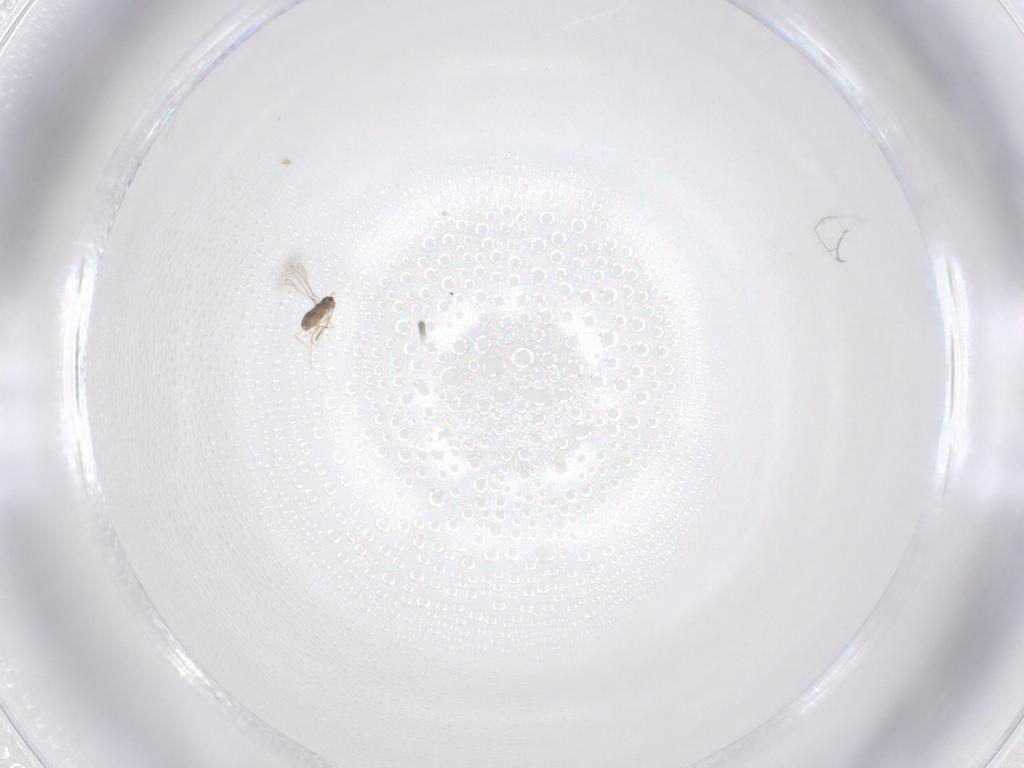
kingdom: Animalia
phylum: Arthropoda
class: Insecta
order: Hymenoptera
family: Mymaridae
